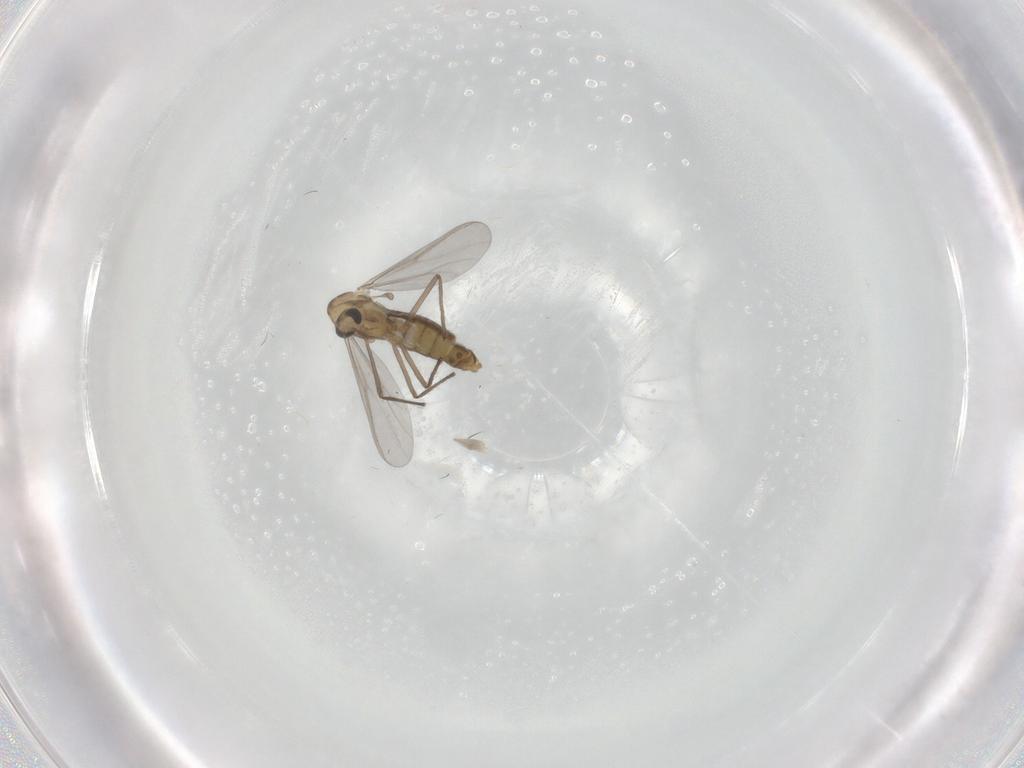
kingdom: Animalia
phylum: Arthropoda
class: Insecta
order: Diptera
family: Chironomidae
